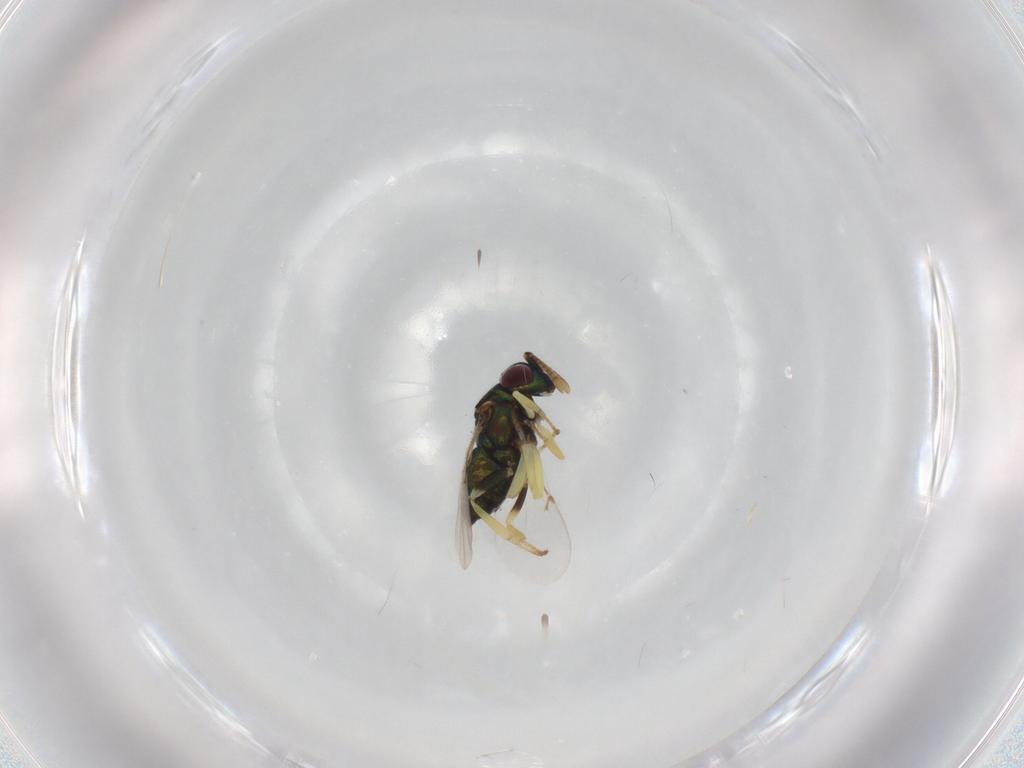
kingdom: Animalia
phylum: Arthropoda
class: Insecta
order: Hymenoptera
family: Encyrtidae
